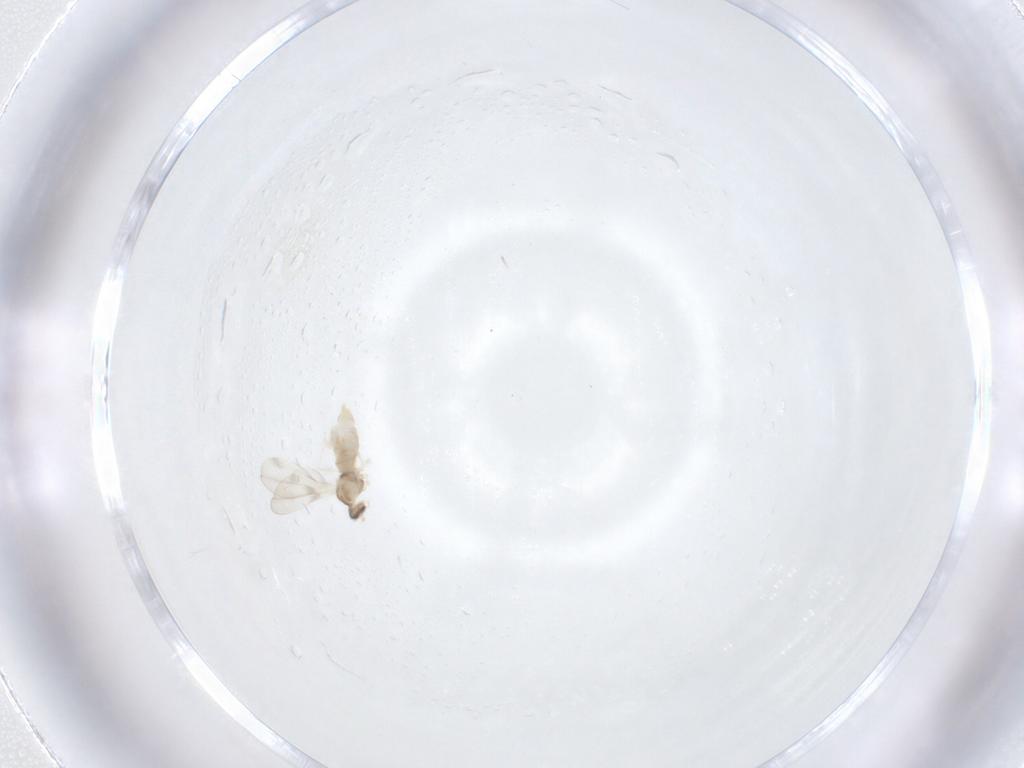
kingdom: Animalia
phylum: Arthropoda
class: Insecta
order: Diptera
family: Cecidomyiidae
